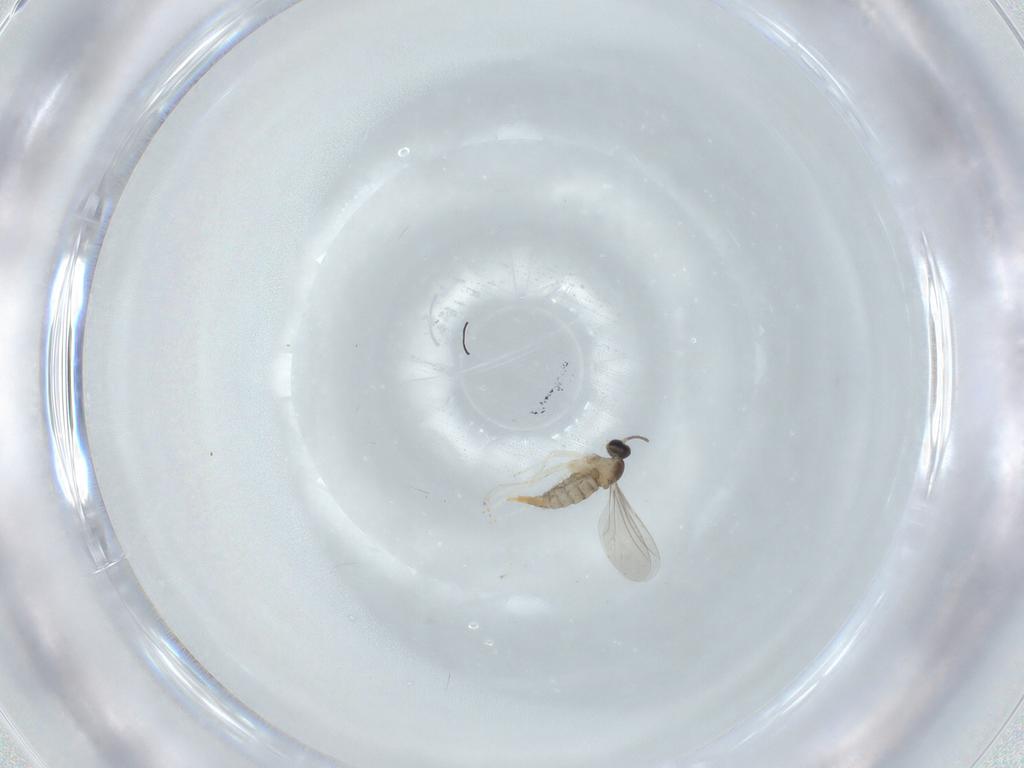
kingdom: Animalia
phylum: Arthropoda
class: Insecta
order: Diptera
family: Cecidomyiidae
